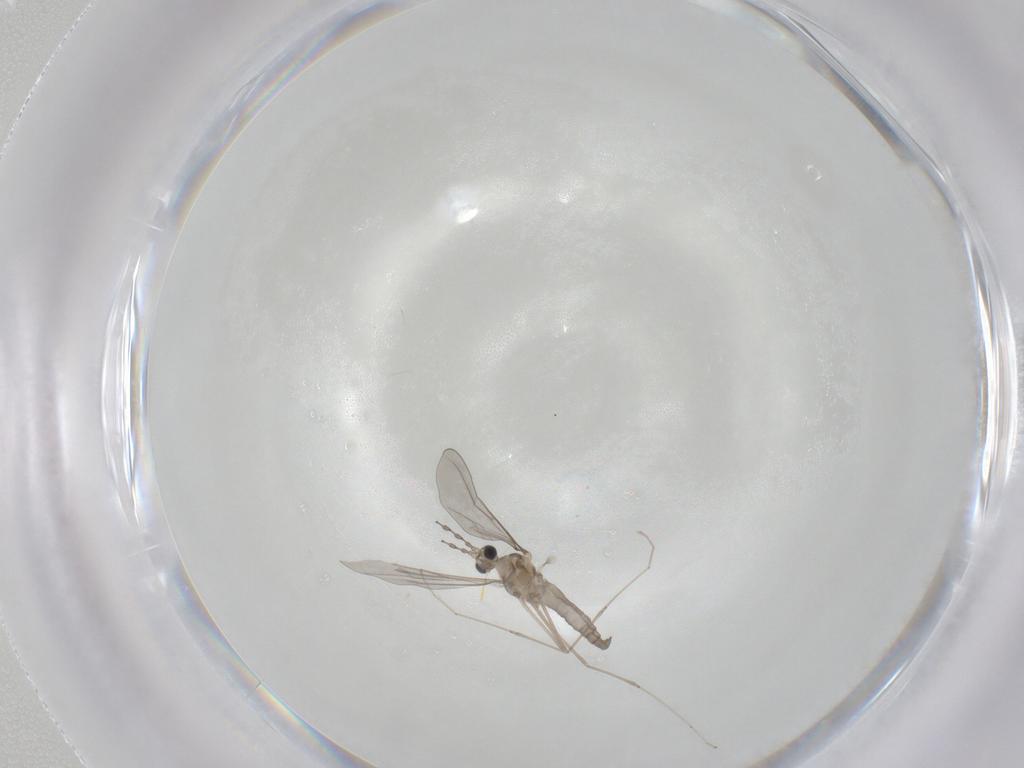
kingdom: Animalia
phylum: Arthropoda
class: Insecta
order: Diptera
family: Cecidomyiidae
